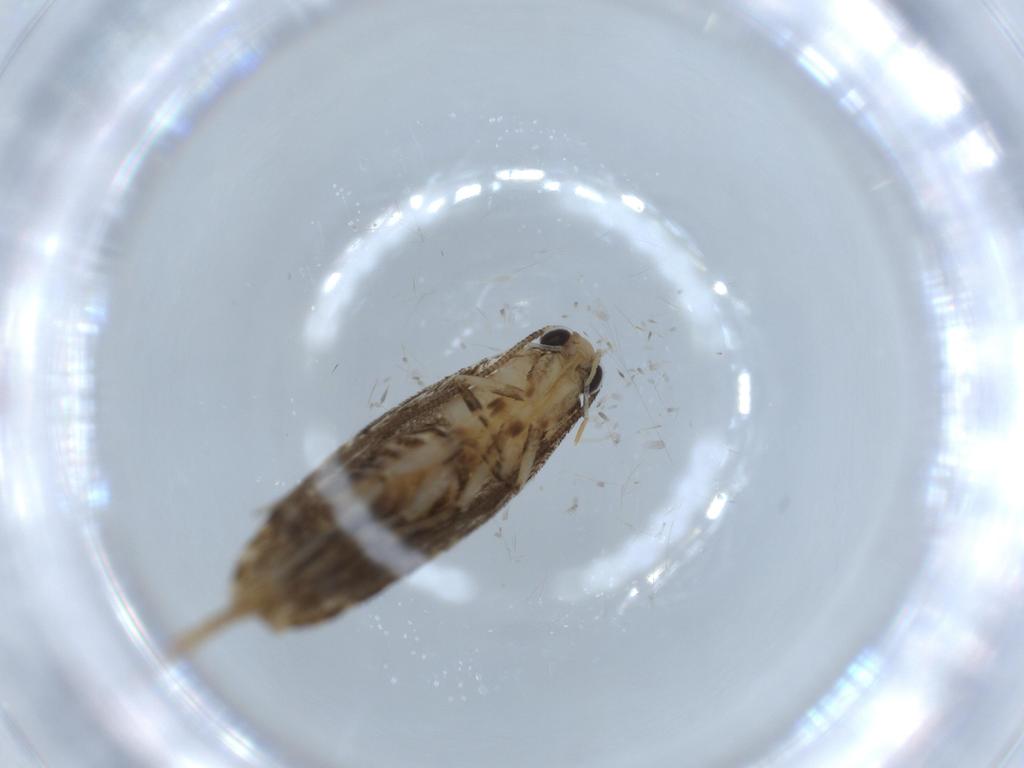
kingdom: Animalia
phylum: Arthropoda
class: Insecta
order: Lepidoptera
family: Tineidae
